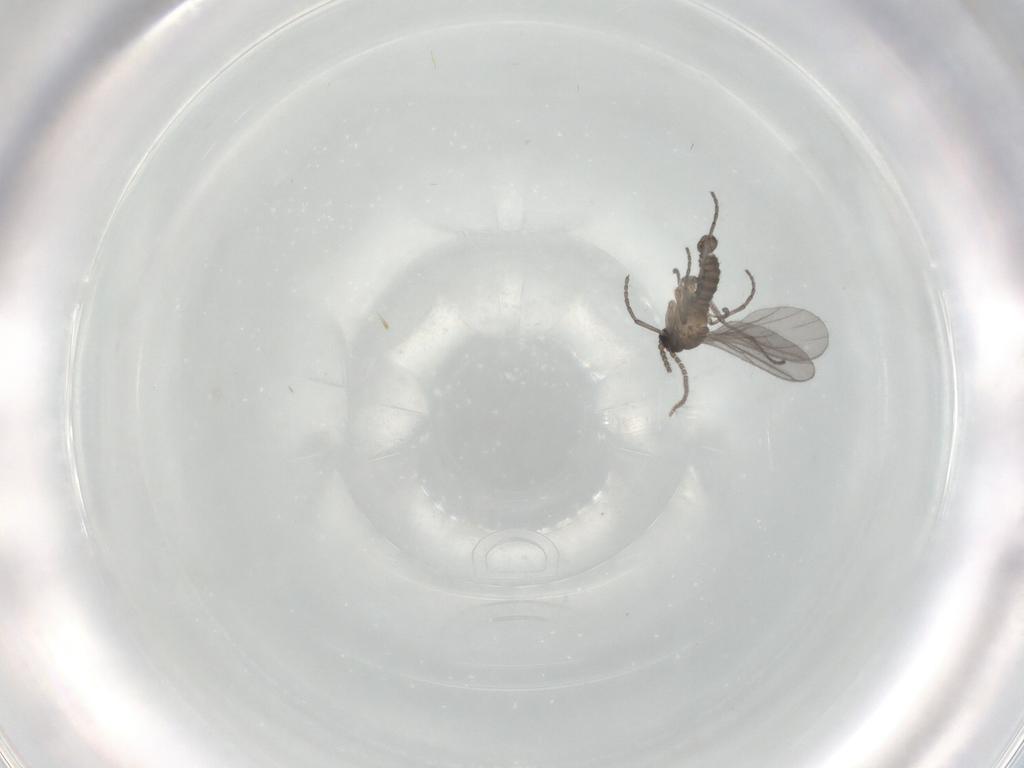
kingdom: Animalia
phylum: Arthropoda
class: Insecta
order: Diptera
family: Sciaridae
